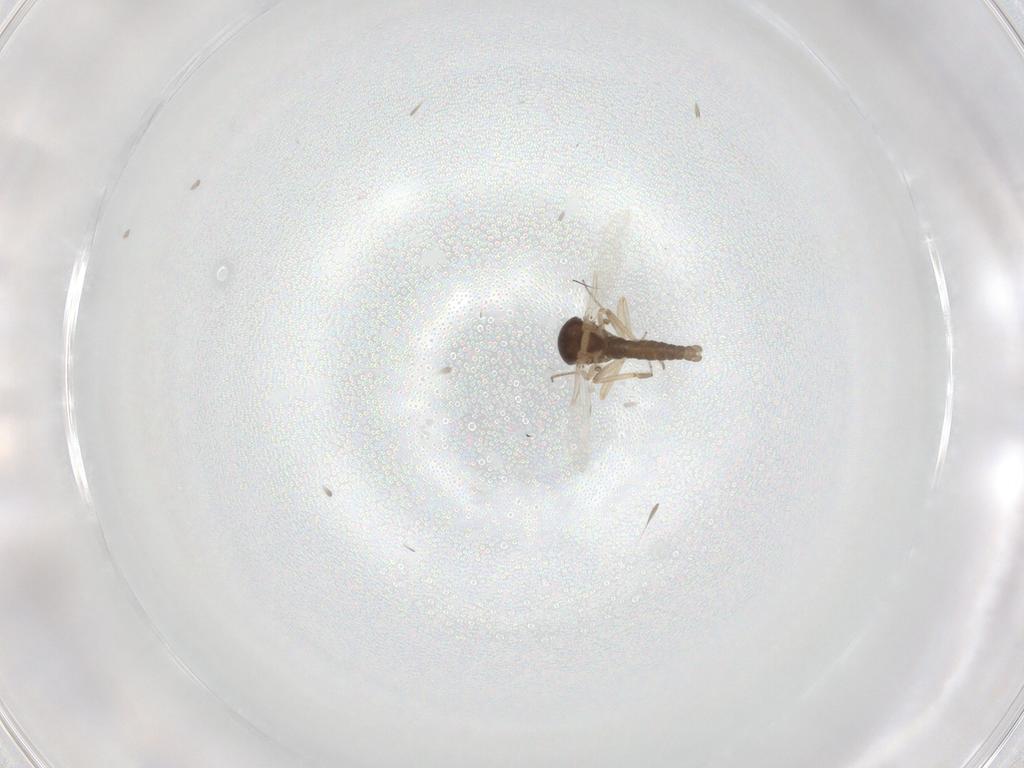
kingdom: Animalia
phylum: Arthropoda
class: Insecta
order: Diptera
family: Ceratopogonidae
